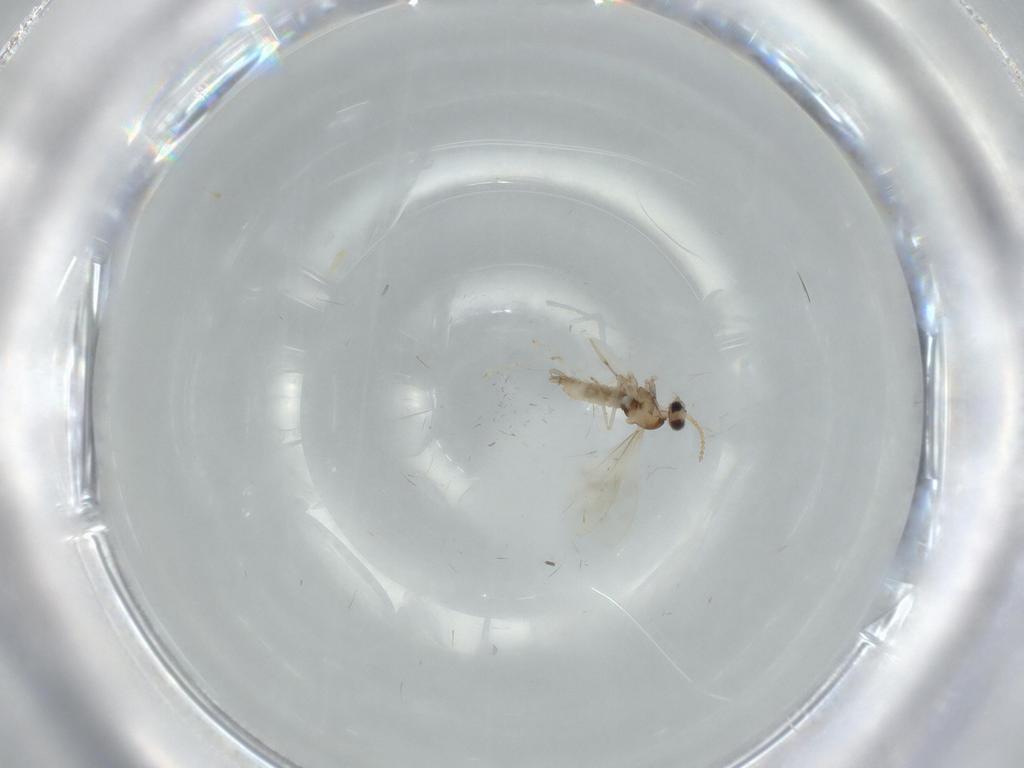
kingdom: Animalia
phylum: Arthropoda
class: Insecta
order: Diptera
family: Cecidomyiidae
